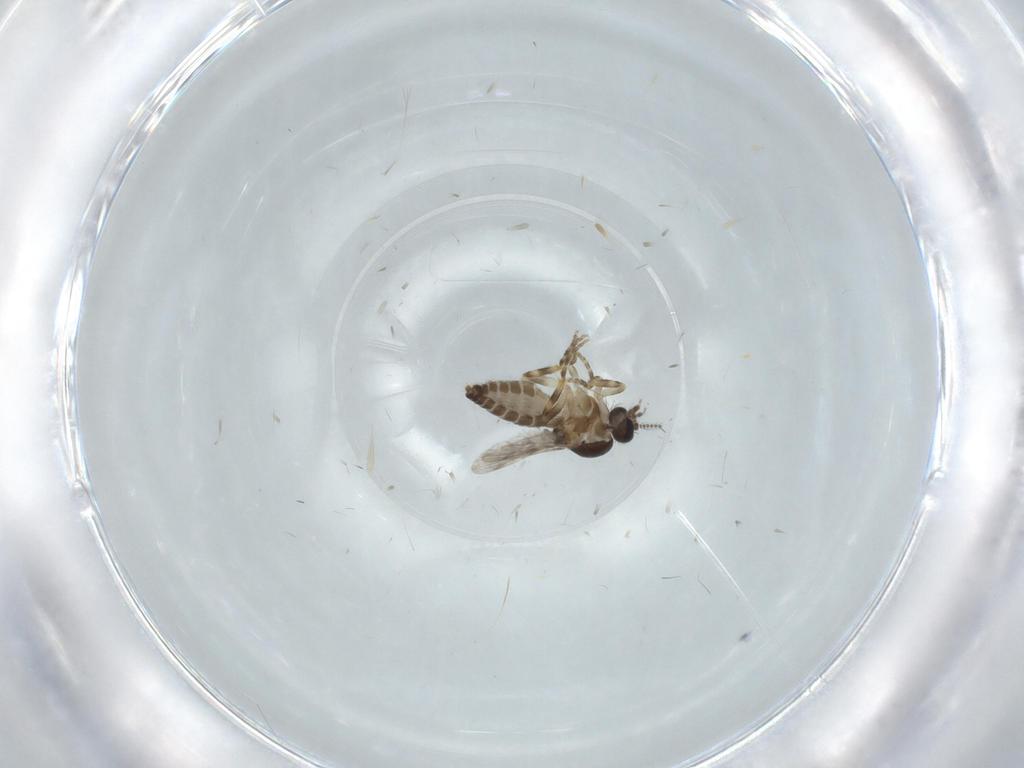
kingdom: Animalia
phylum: Arthropoda
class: Insecta
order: Diptera
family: Ceratopogonidae
